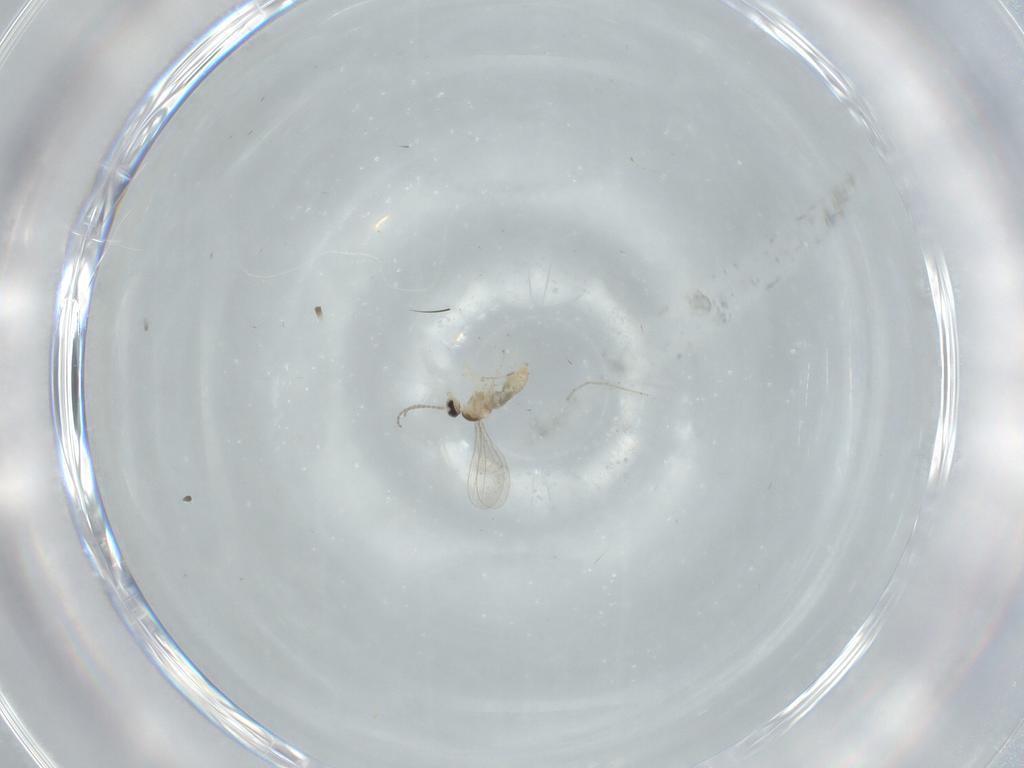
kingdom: Animalia
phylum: Arthropoda
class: Insecta
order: Diptera
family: Cecidomyiidae
